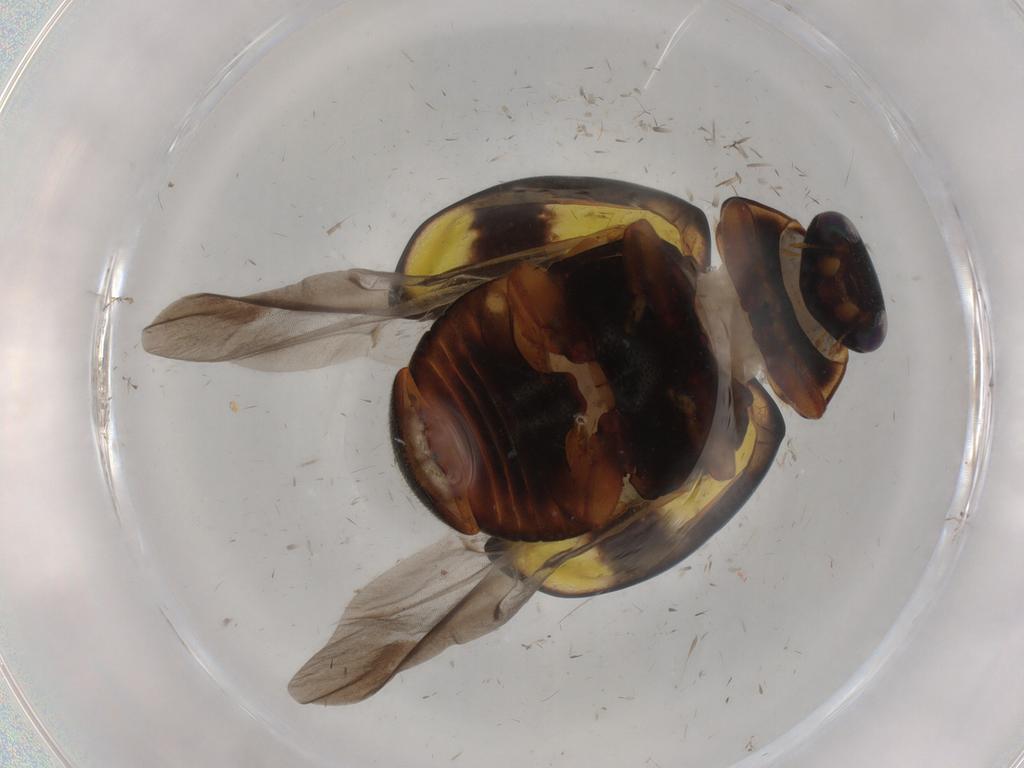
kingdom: Animalia
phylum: Arthropoda
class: Insecta
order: Coleoptera
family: Coccinellidae
